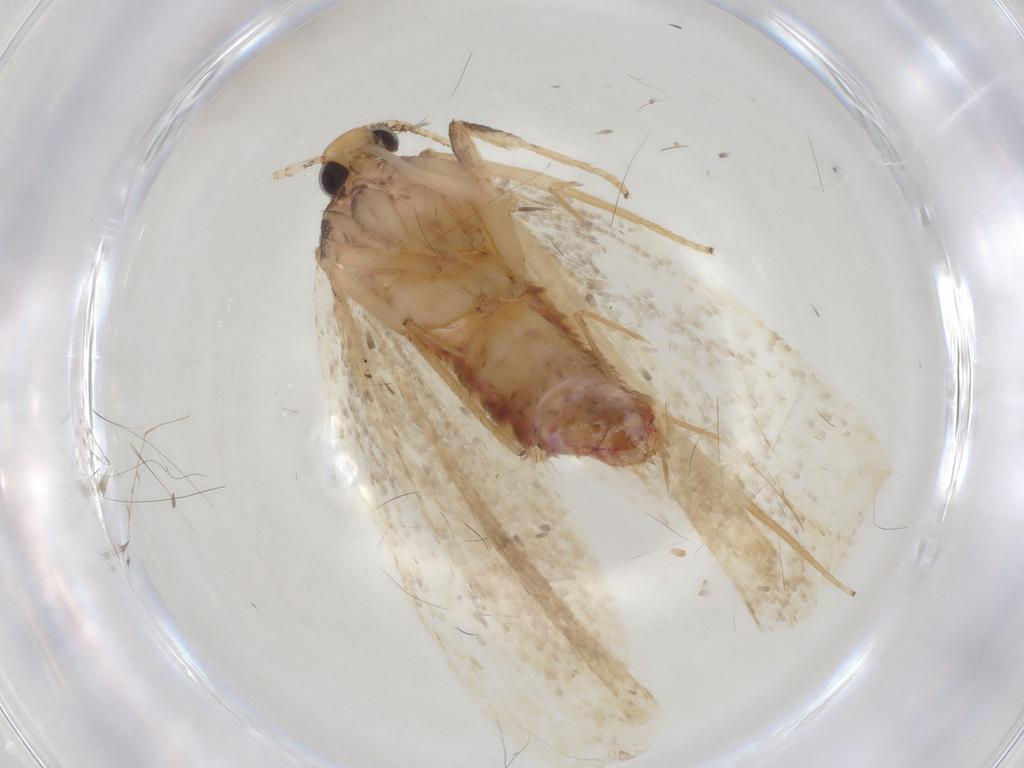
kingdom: Animalia
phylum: Arthropoda
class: Insecta
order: Lepidoptera
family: Lecithoceridae
